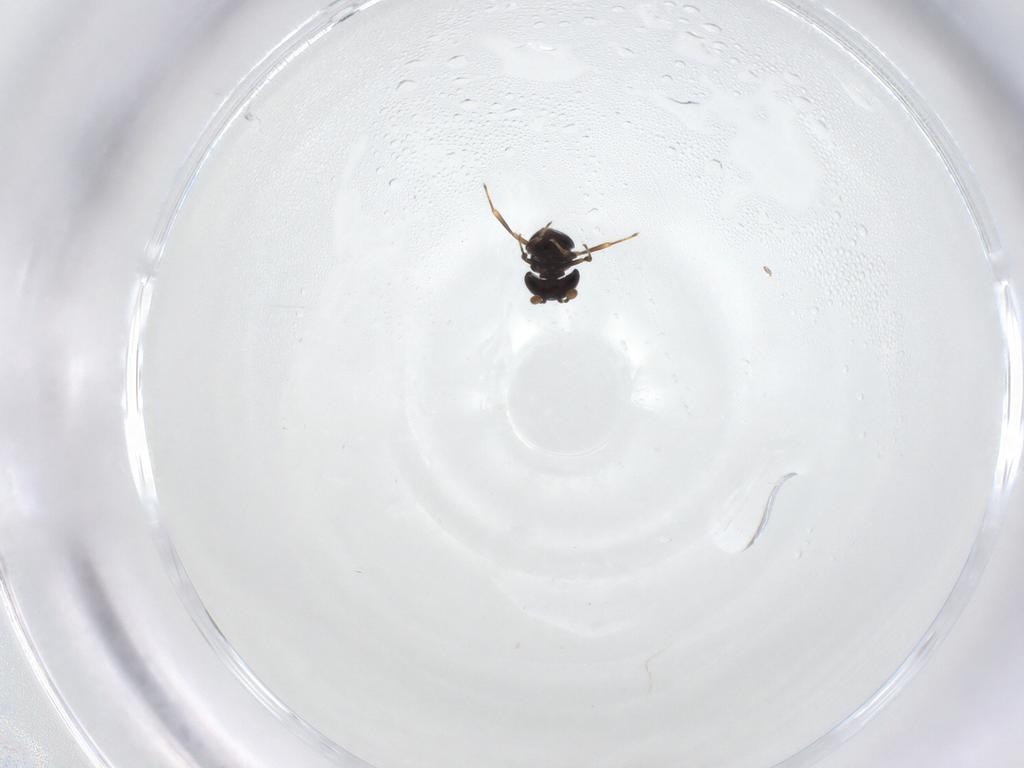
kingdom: Animalia
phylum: Arthropoda
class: Insecta
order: Hymenoptera
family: Scelionidae
